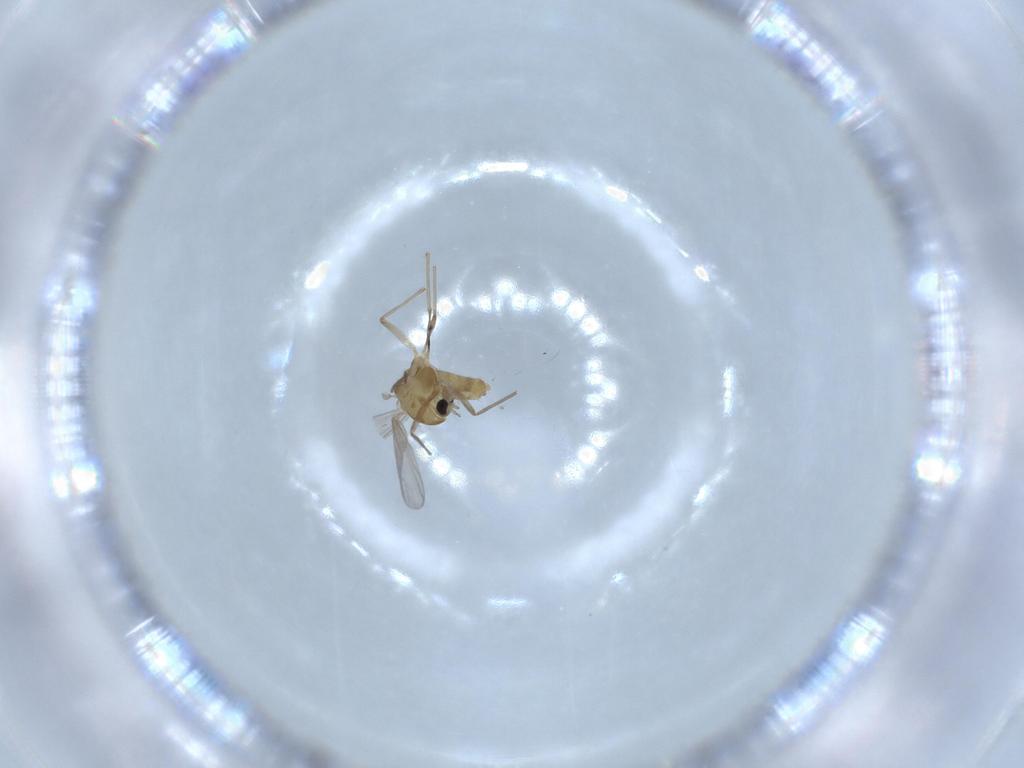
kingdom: Animalia
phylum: Arthropoda
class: Insecta
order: Diptera
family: Chironomidae
